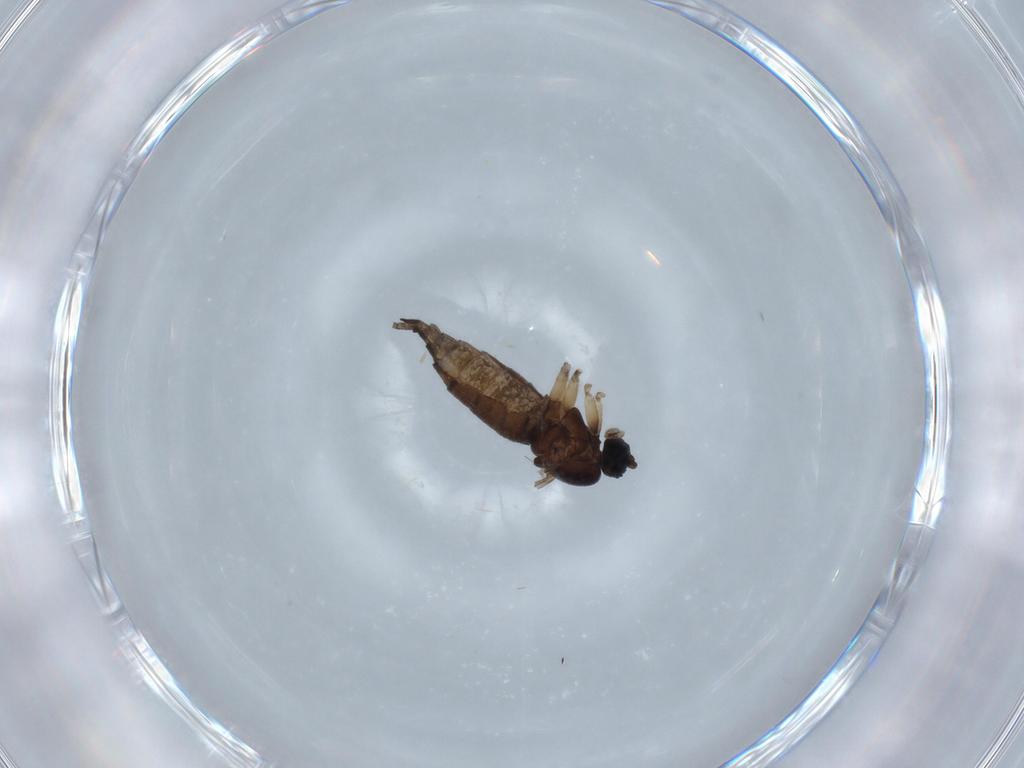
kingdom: Animalia
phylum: Arthropoda
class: Insecta
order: Diptera
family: Sciaridae
